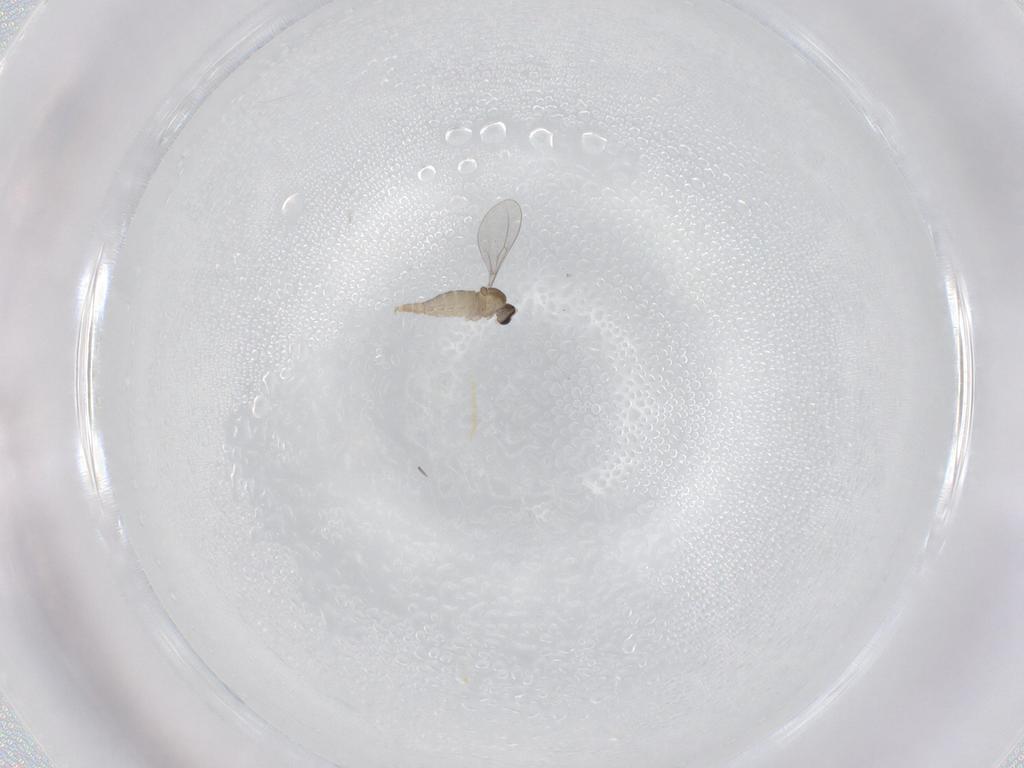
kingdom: Animalia
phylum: Arthropoda
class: Insecta
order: Diptera
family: Cecidomyiidae
